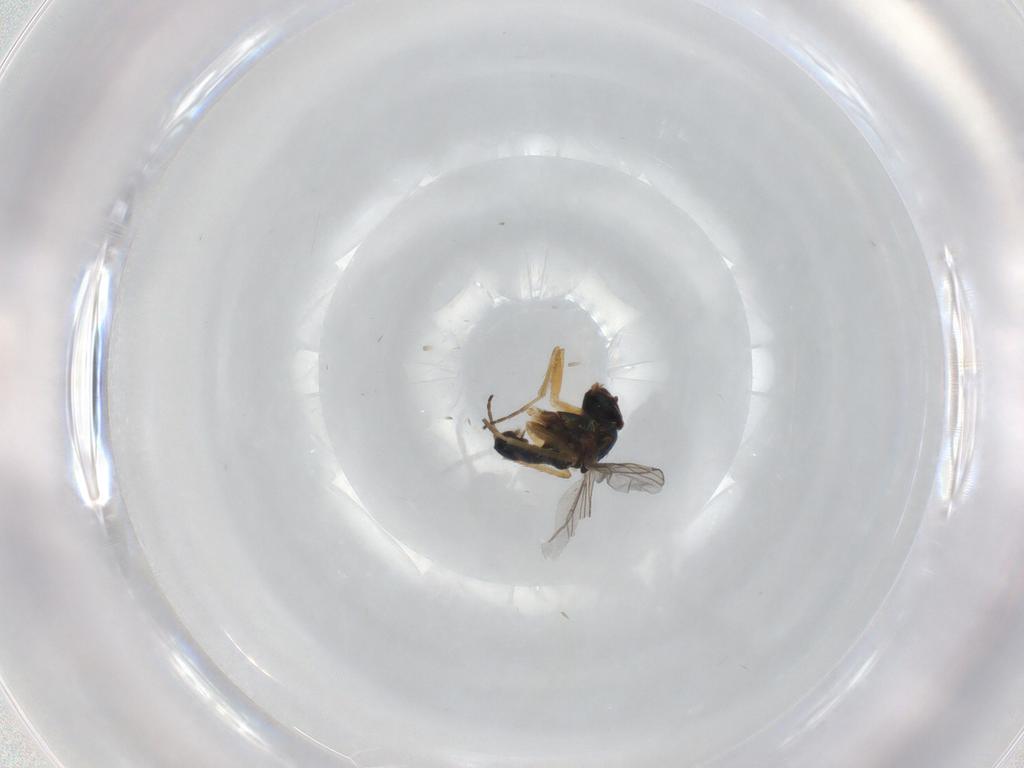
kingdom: Animalia
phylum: Arthropoda
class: Insecta
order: Diptera
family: Dolichopodidae
